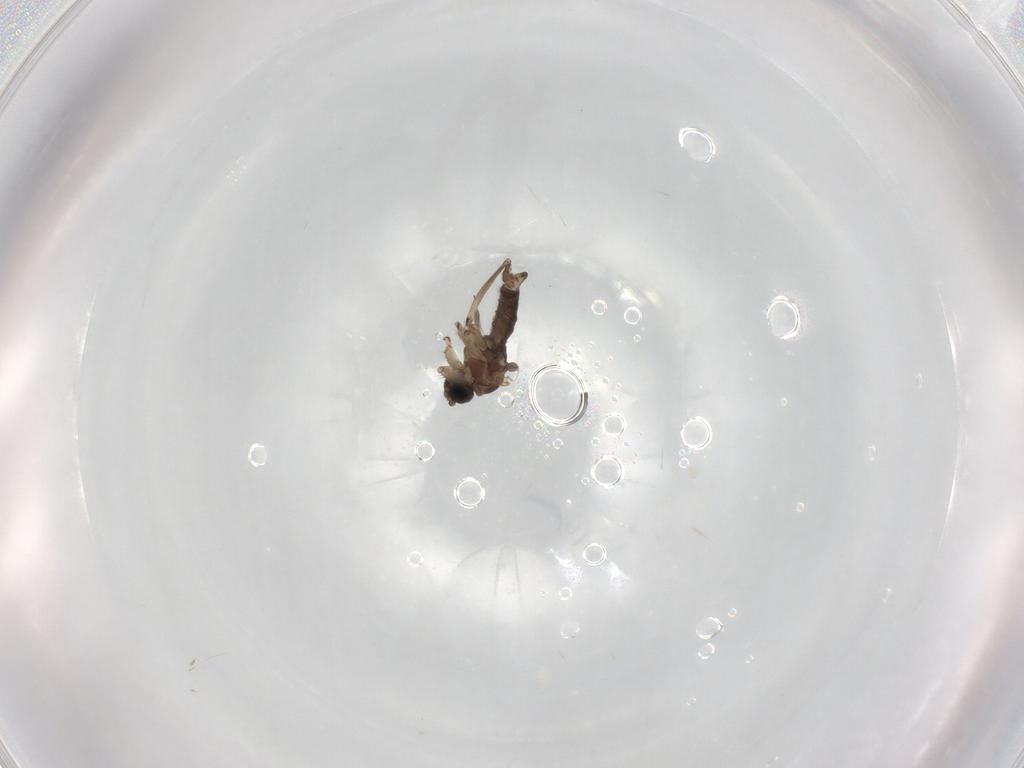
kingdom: Animalia
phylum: Arthropoda
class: Insecta
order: Diptera
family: Sciaridae
